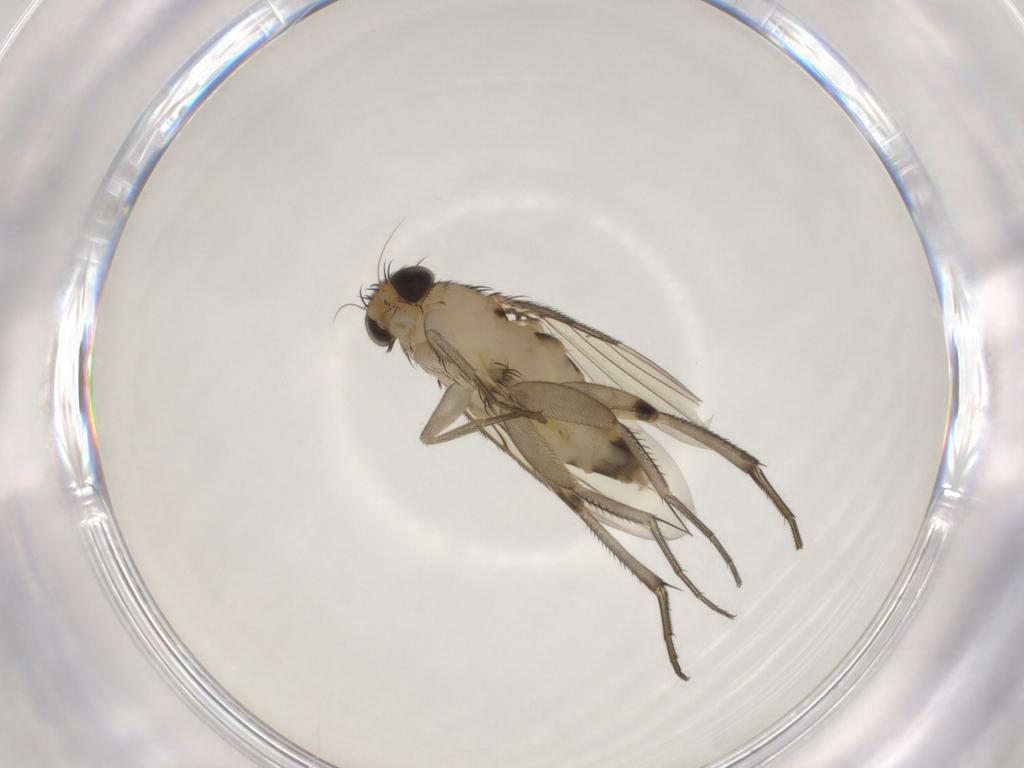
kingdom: Animalia
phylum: Arthropoda
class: Insecta
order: Diptera
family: Phoridae
